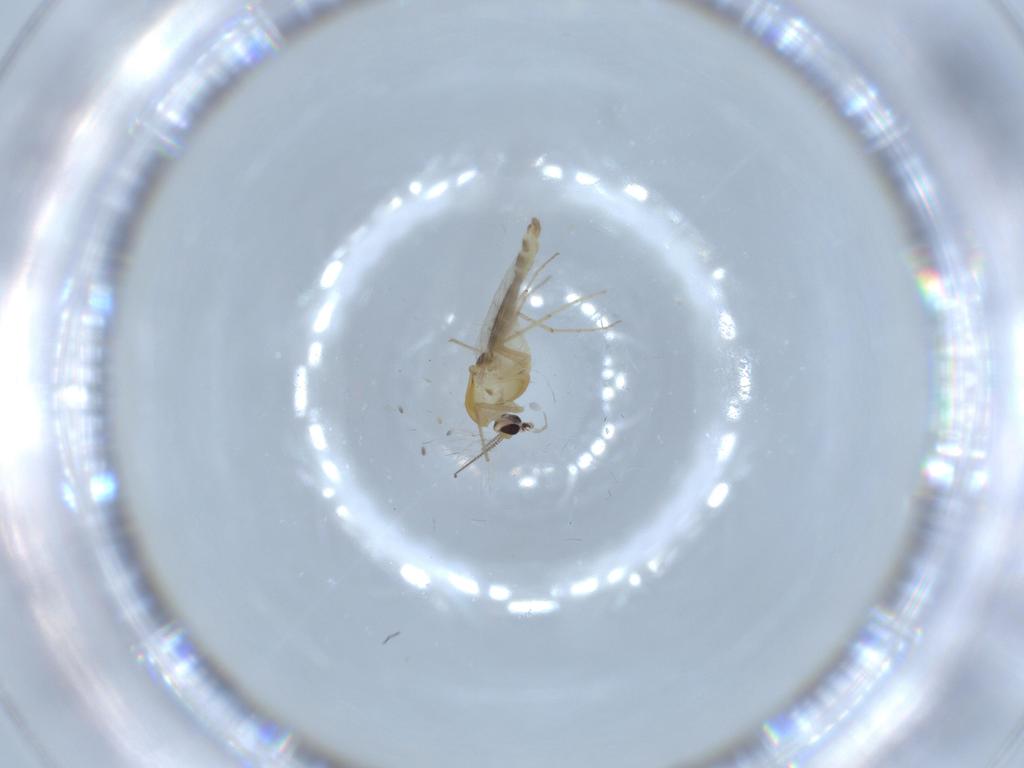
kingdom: Animalia
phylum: Arthropoda
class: Insecta
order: Diptera
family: Chironomidae
